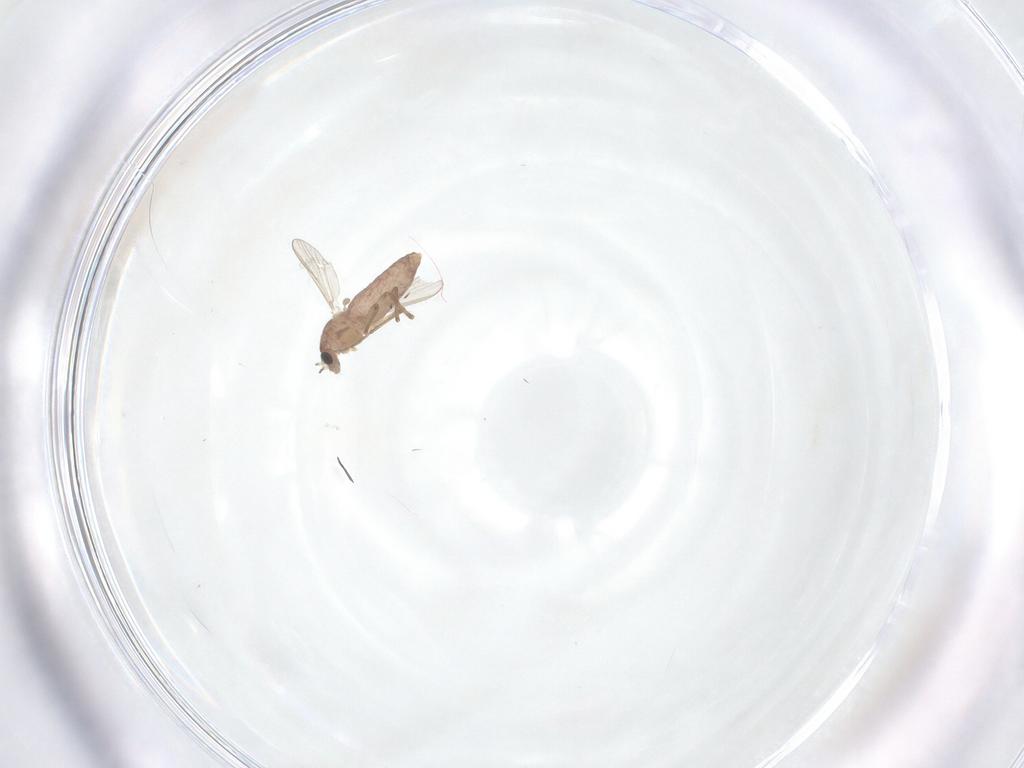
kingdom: Animalia
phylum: Arthropoda
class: Insecta
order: Diptera
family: Chironomidae
